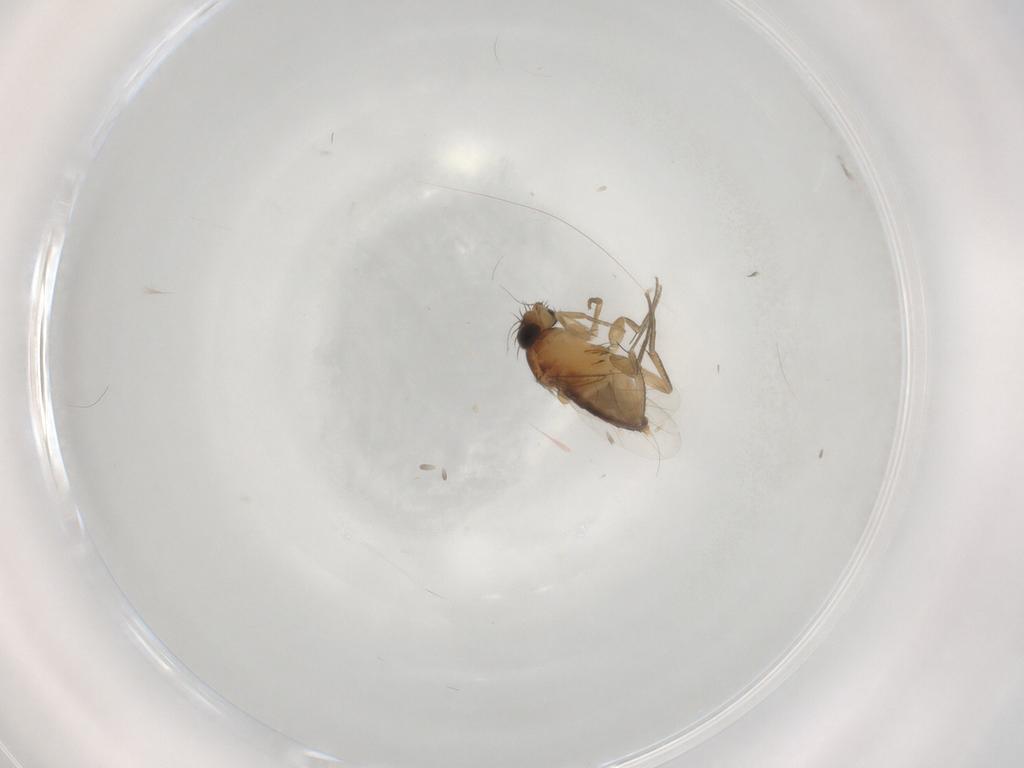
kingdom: Animalia
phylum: Arthropoda
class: Insecta
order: Diptera
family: Phoridae
